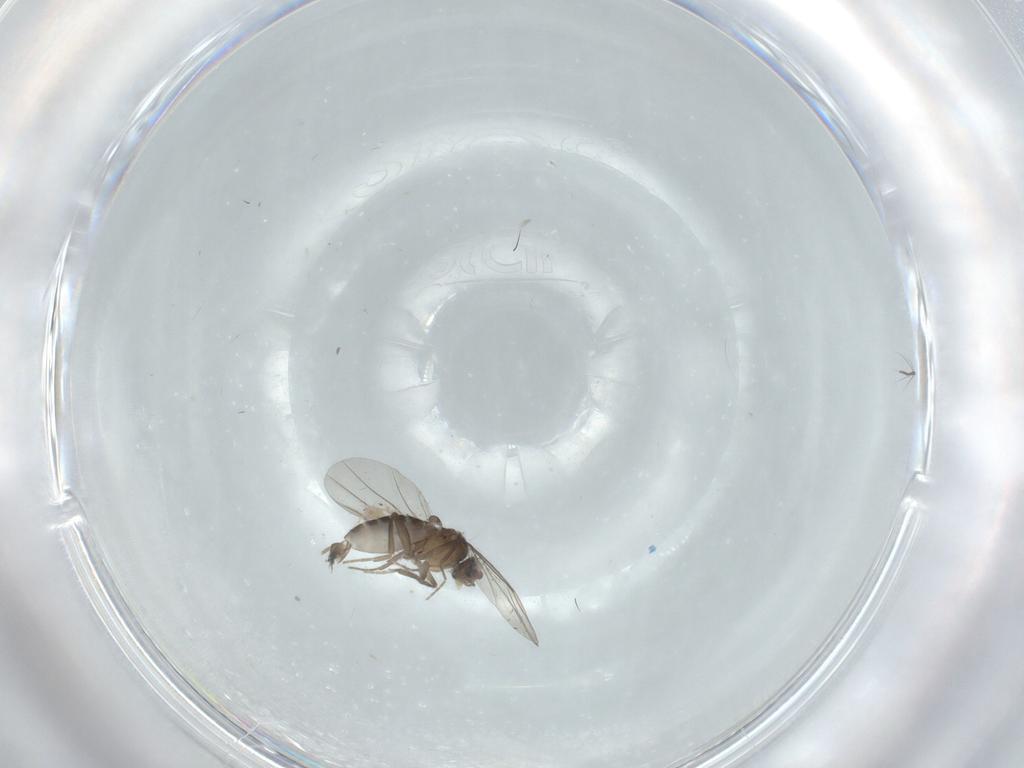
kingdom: Animalia
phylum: Arthropoda
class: Insecta
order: Diptera
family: Phoridae
